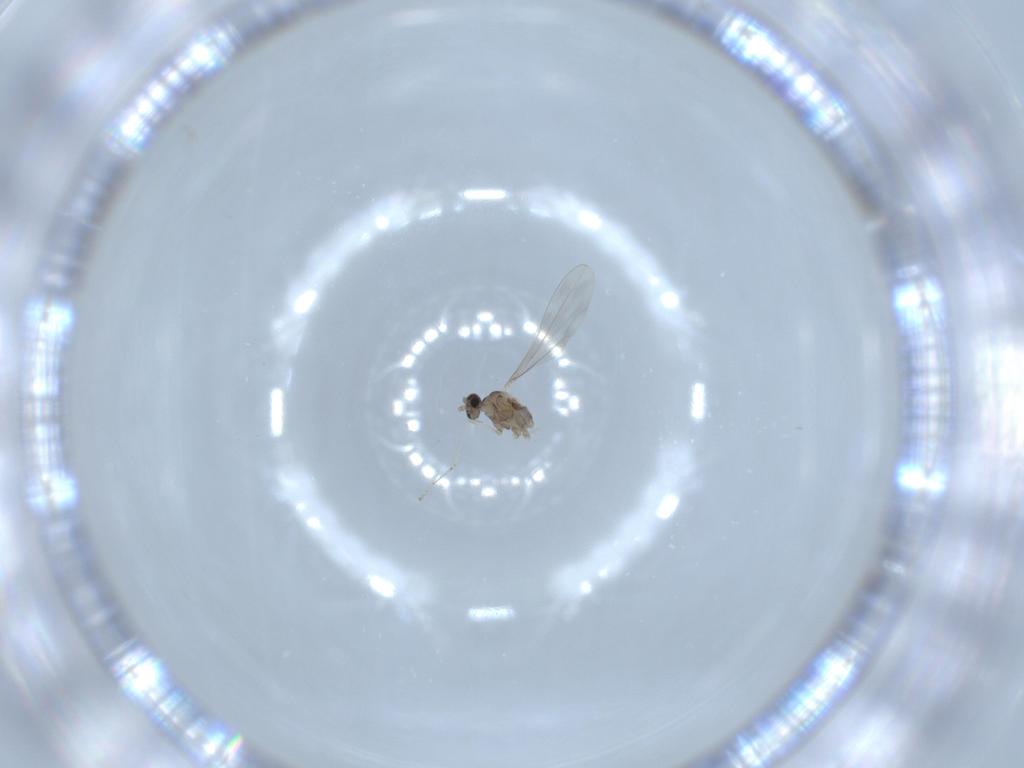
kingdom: Animalia
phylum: Arthropoda
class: Insecta
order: Diptera
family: Cecidomyiidae
